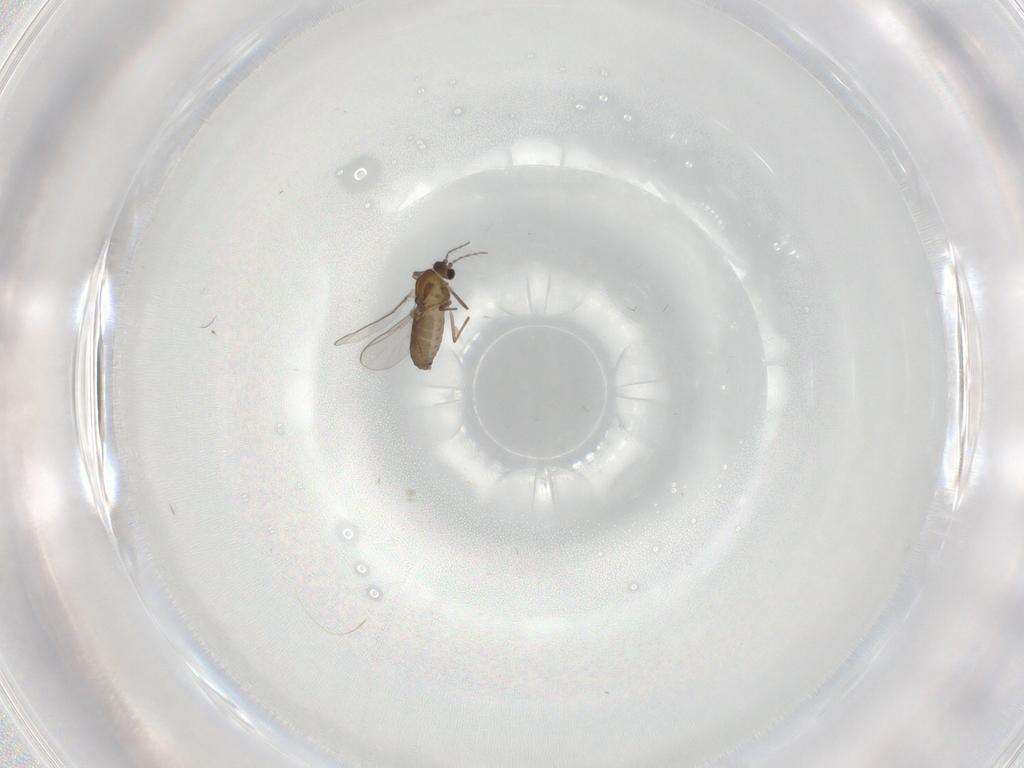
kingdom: Animalia
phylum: Arthropoda
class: Insecta
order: Diptera
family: Chironomidae
